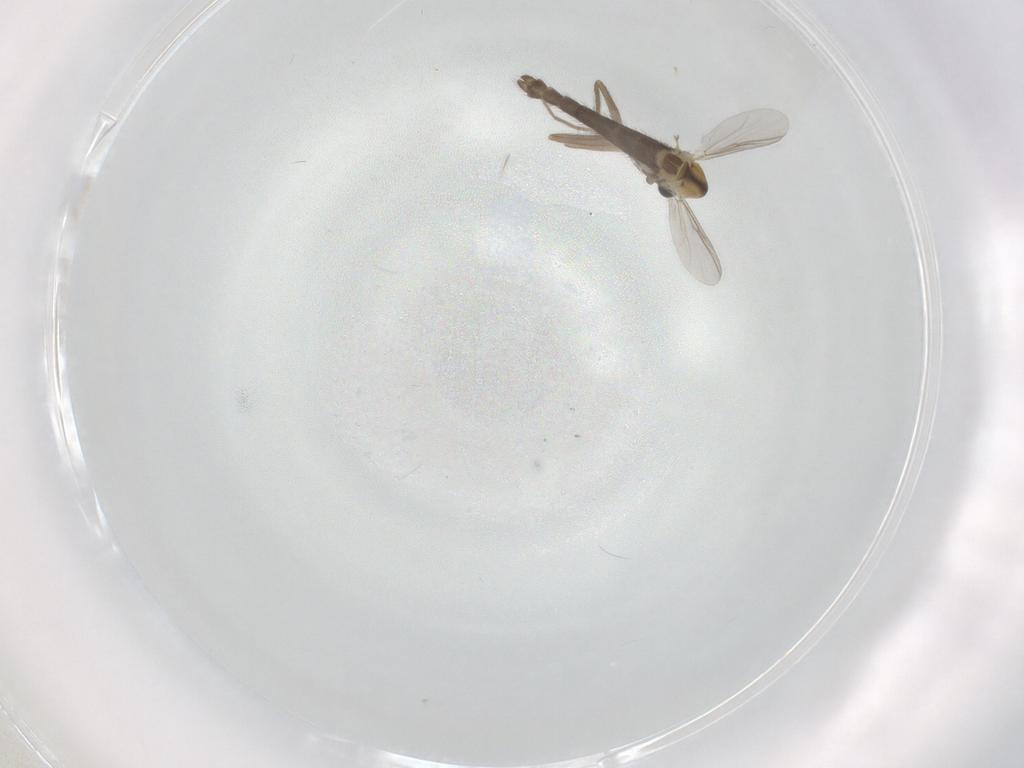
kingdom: Animalia
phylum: Arthropoda
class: Insecta
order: Diptera
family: Chironomidae
